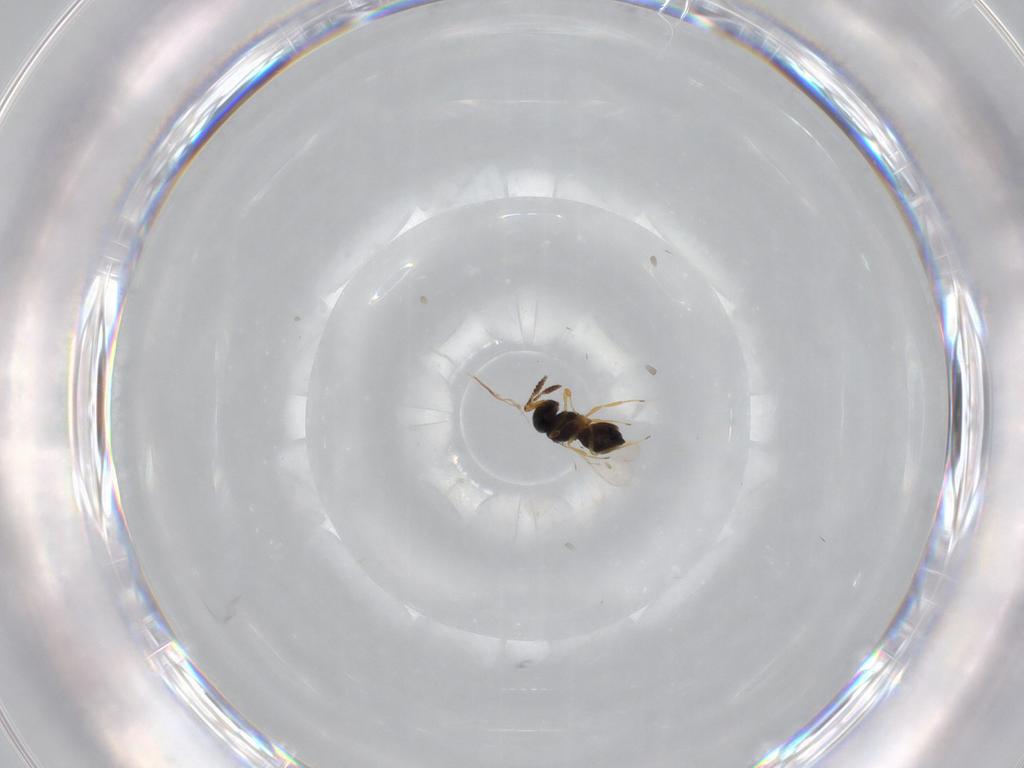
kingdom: Animalia
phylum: Arthropoda
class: Insecta
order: Hymenoptera
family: Scelionidae
